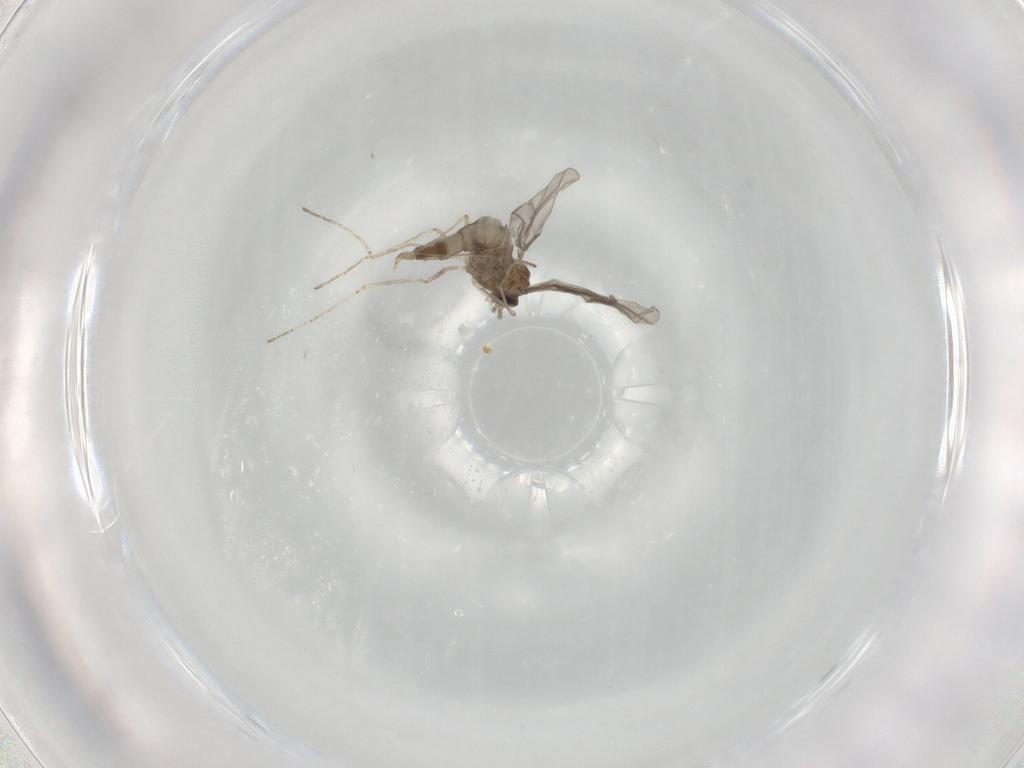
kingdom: Animalia
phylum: Arthropoda
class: Insecta
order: Diptera
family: Cecidomyiidae
